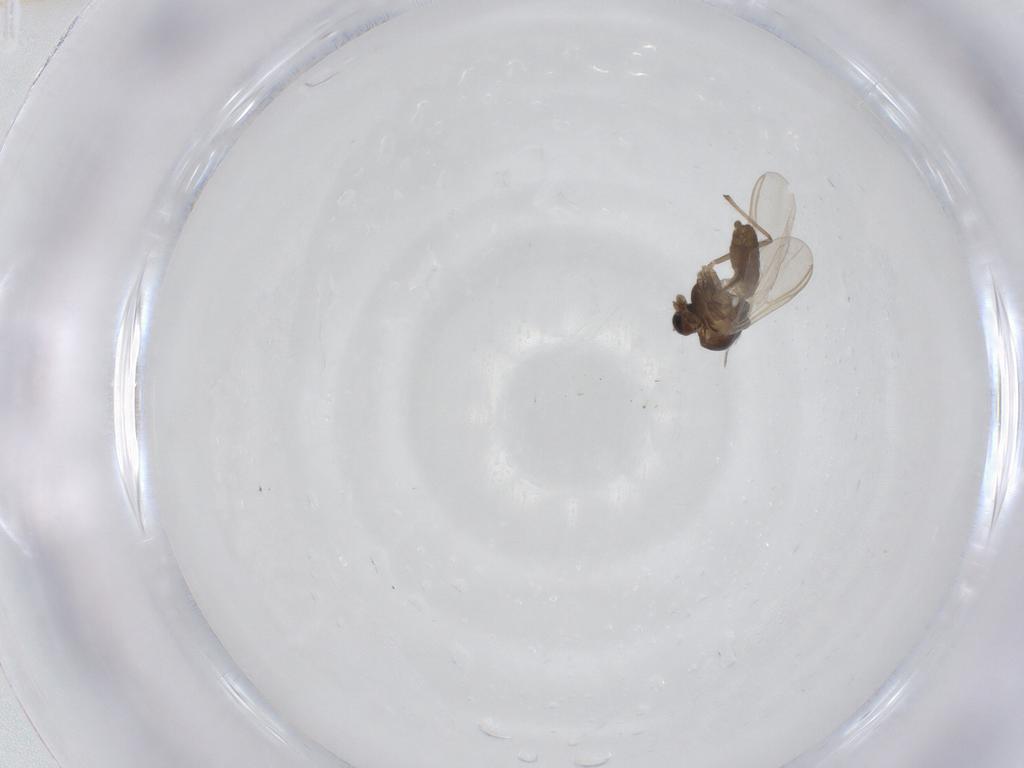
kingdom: Animalia
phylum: Arthropoda
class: Insecta
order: Diptera
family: Chironomidae
